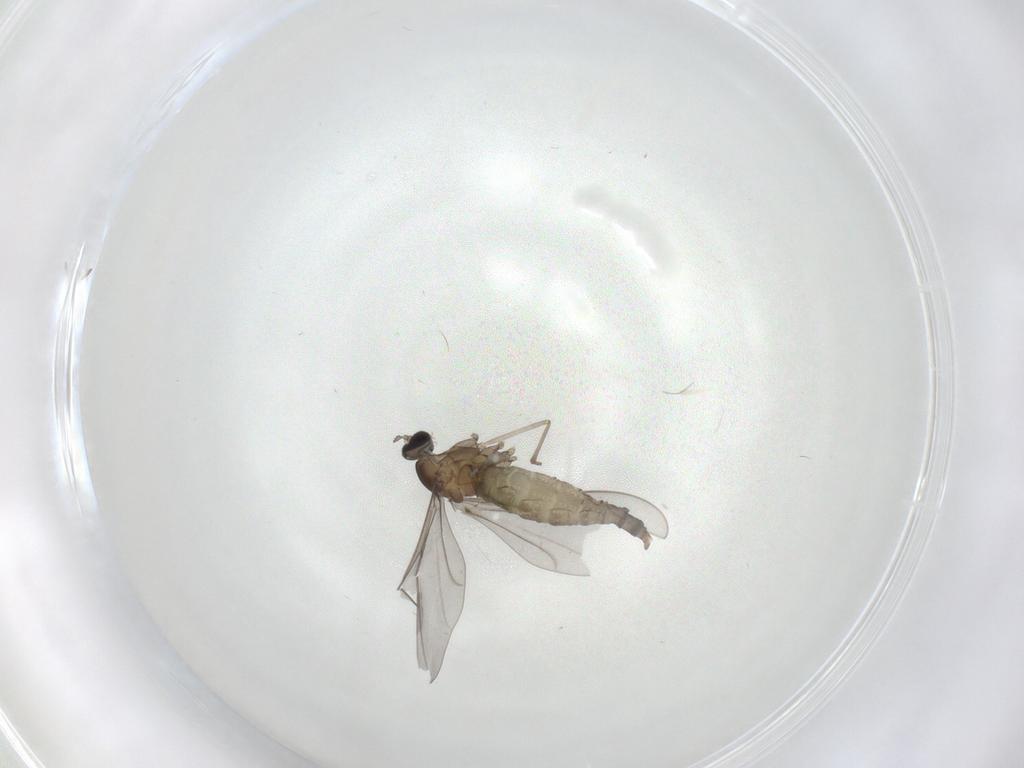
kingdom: Animalia
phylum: Arthropoda
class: Insecta
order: Diptera
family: Cecidomyiidae
